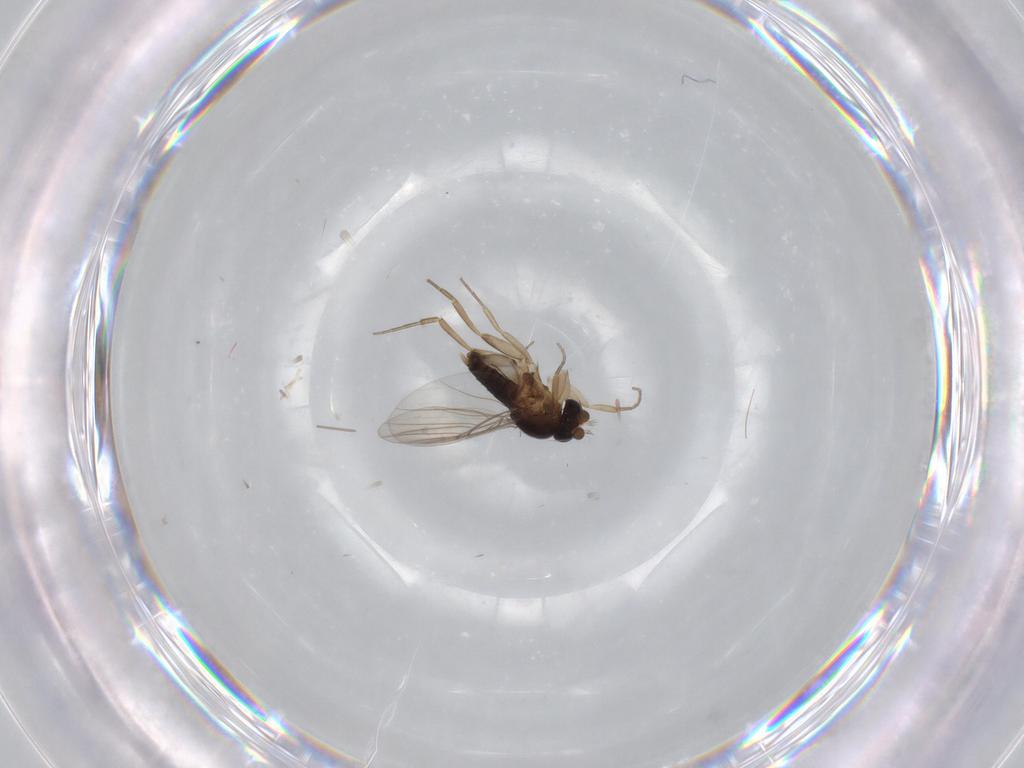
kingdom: Animalia
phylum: Arthropoda
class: Insecta
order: Diptera
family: Phoridae
